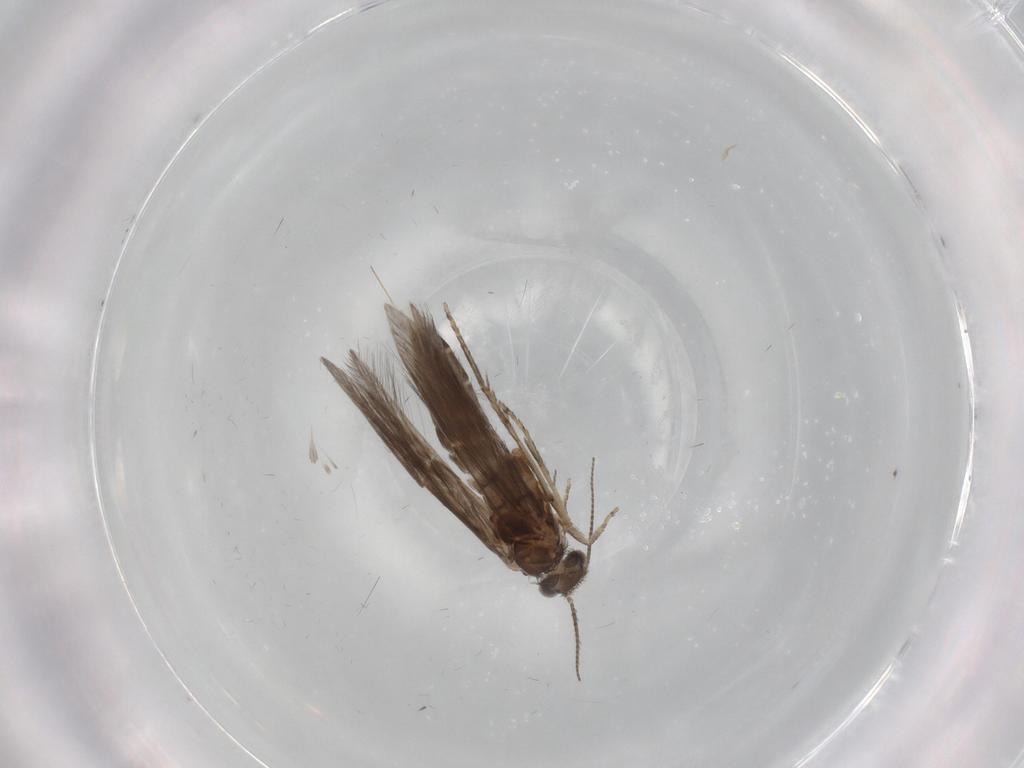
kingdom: Animalia
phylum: Arthropoda
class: Insecta
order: Trichoptera
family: Hydroptilidae
